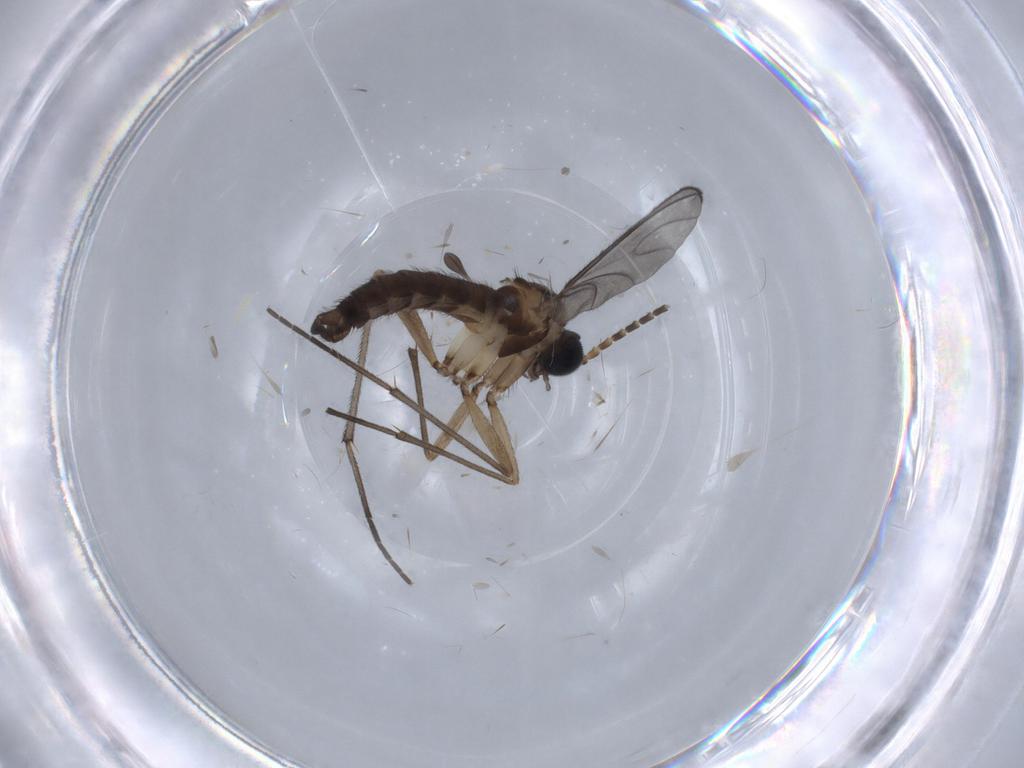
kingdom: Animalia
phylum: Arthropoda
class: Insecta
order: Diptera
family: Sciaridae
